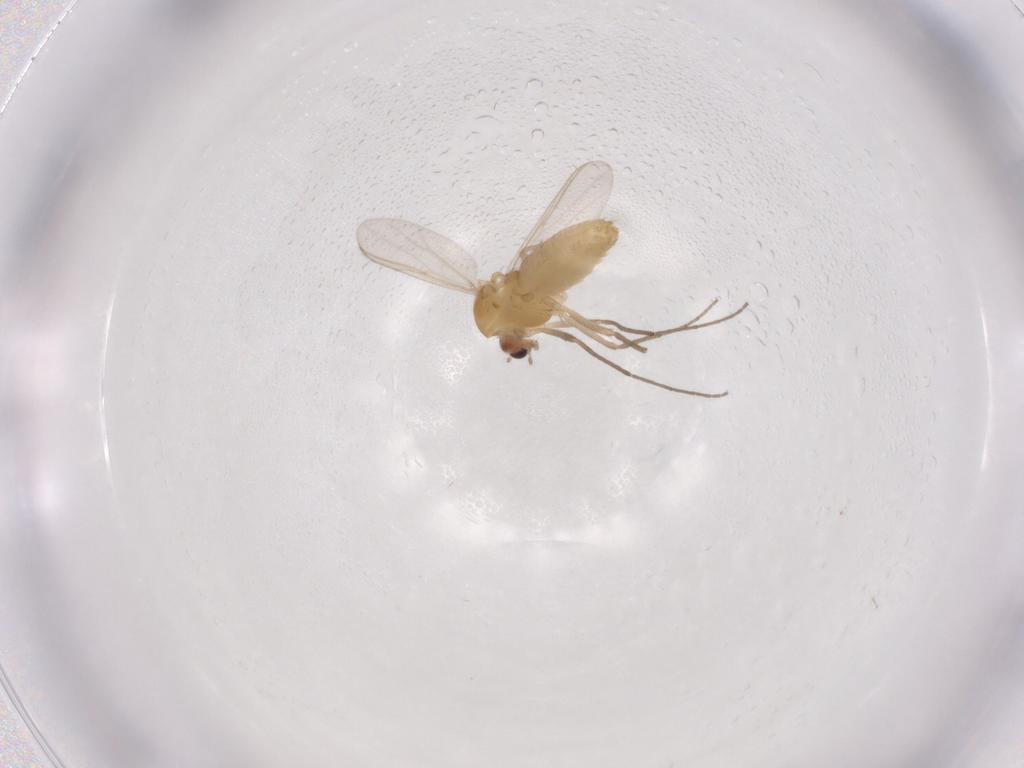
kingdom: Animalia
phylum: Arthropoda
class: Insecta
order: Diptera
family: Chironomidae
